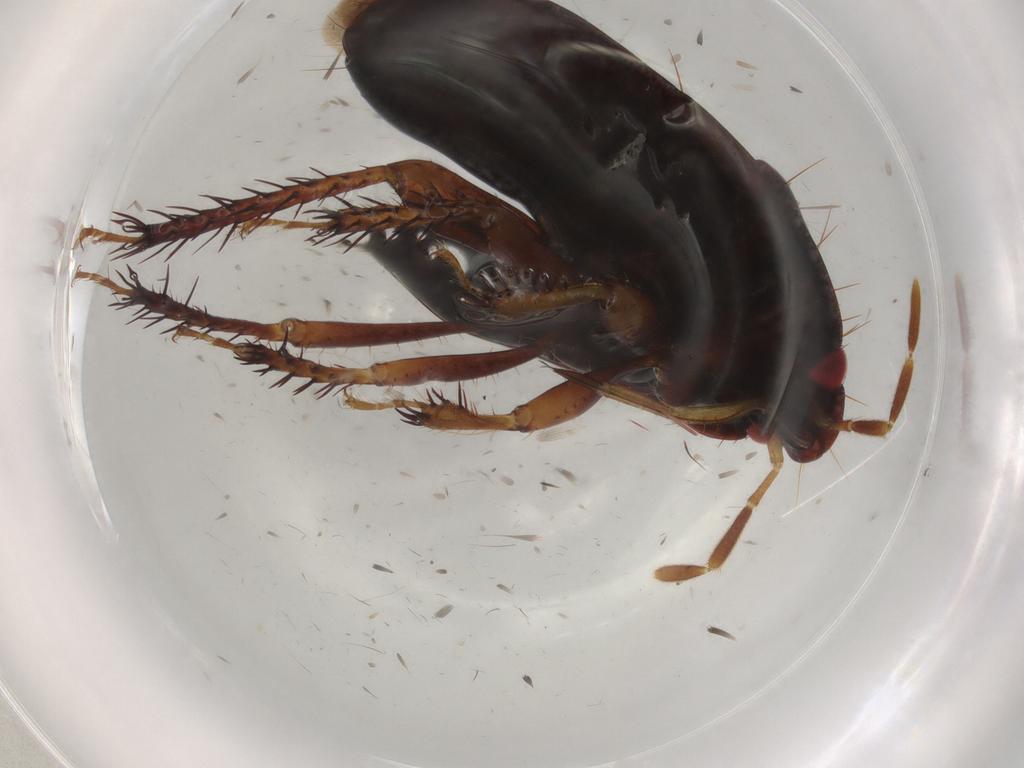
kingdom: Animalia
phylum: Arthropoda
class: Insecta
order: Hemiptera
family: Cydnidae
